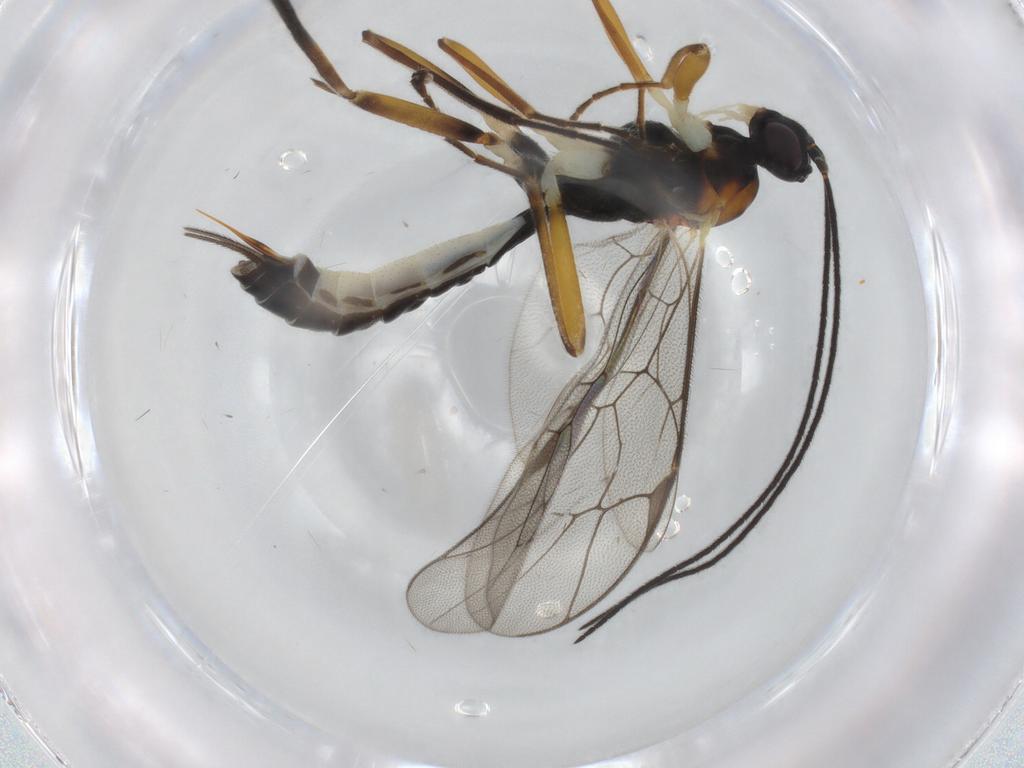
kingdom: Animalia
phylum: Arthropoda
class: Insecta
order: Hymenoptera
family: Ichneumonidae
